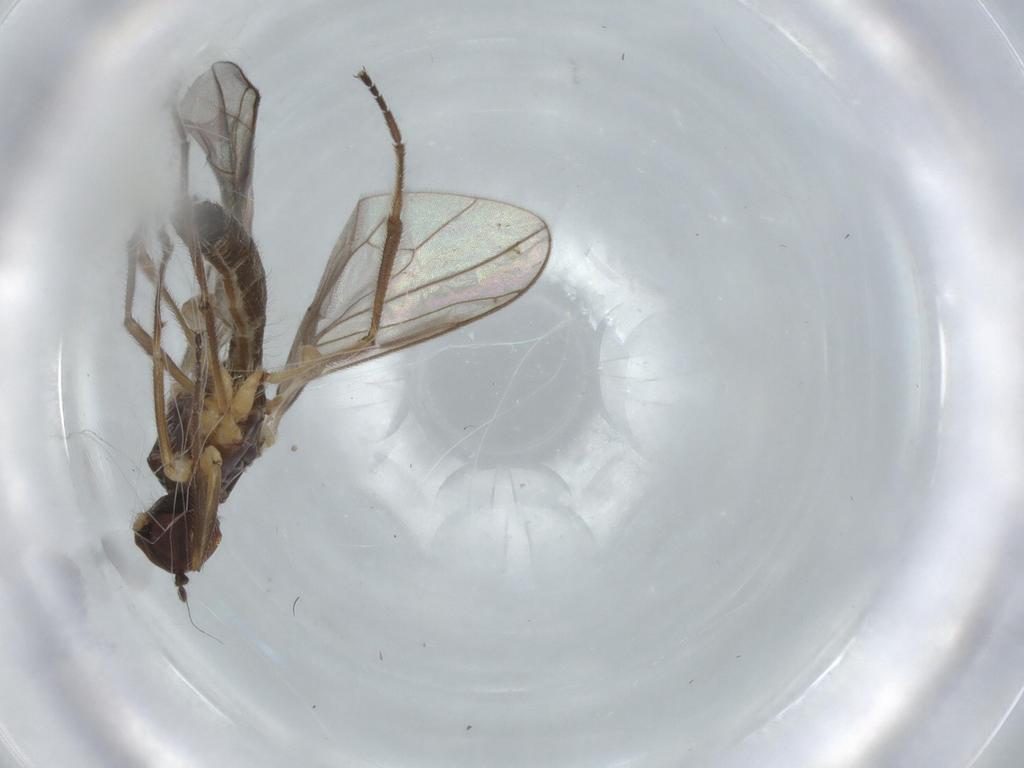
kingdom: Animalia
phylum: Arthropoda
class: Insecta
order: Diptera
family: Hybotidae
